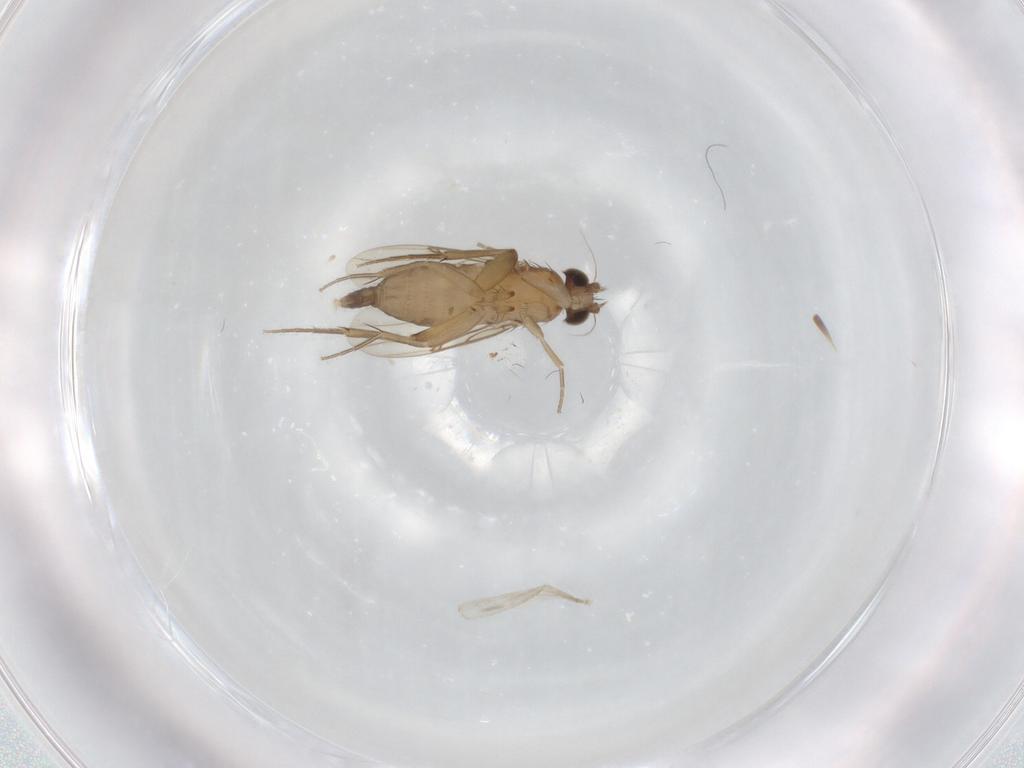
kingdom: Animalia
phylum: Arthropoda
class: Insecta
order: Diptera
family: Phoridae
